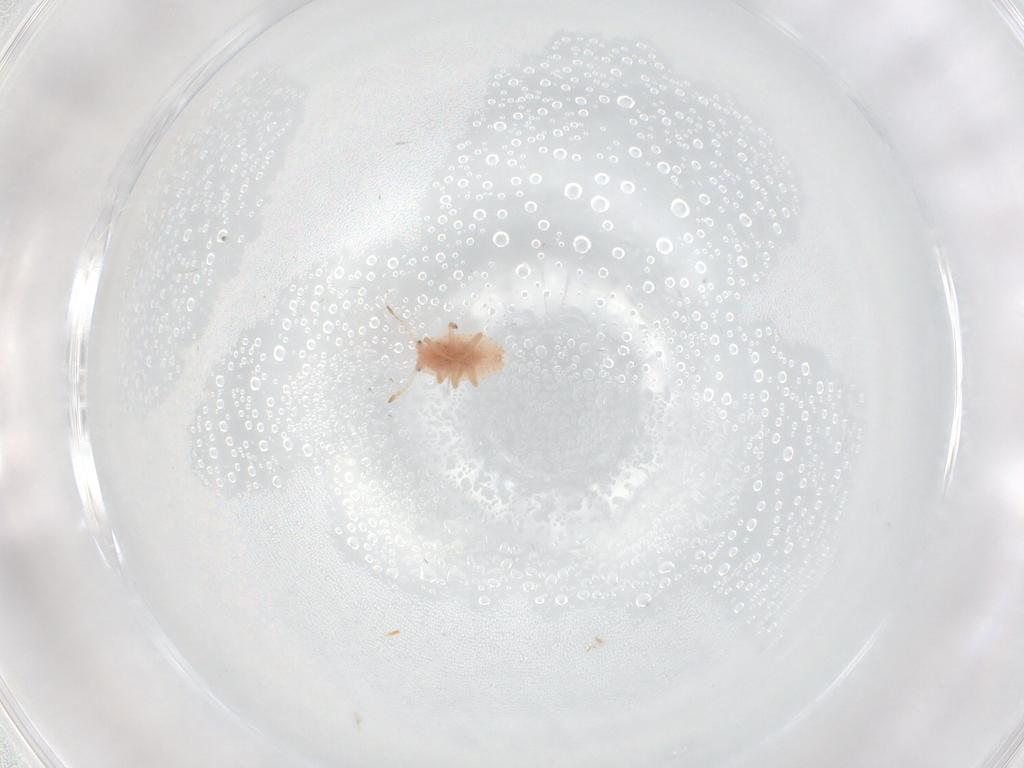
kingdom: Animalia
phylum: Arthropoda
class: Insecta
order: Hemiptera
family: Coccoidea_incertae_sedis
